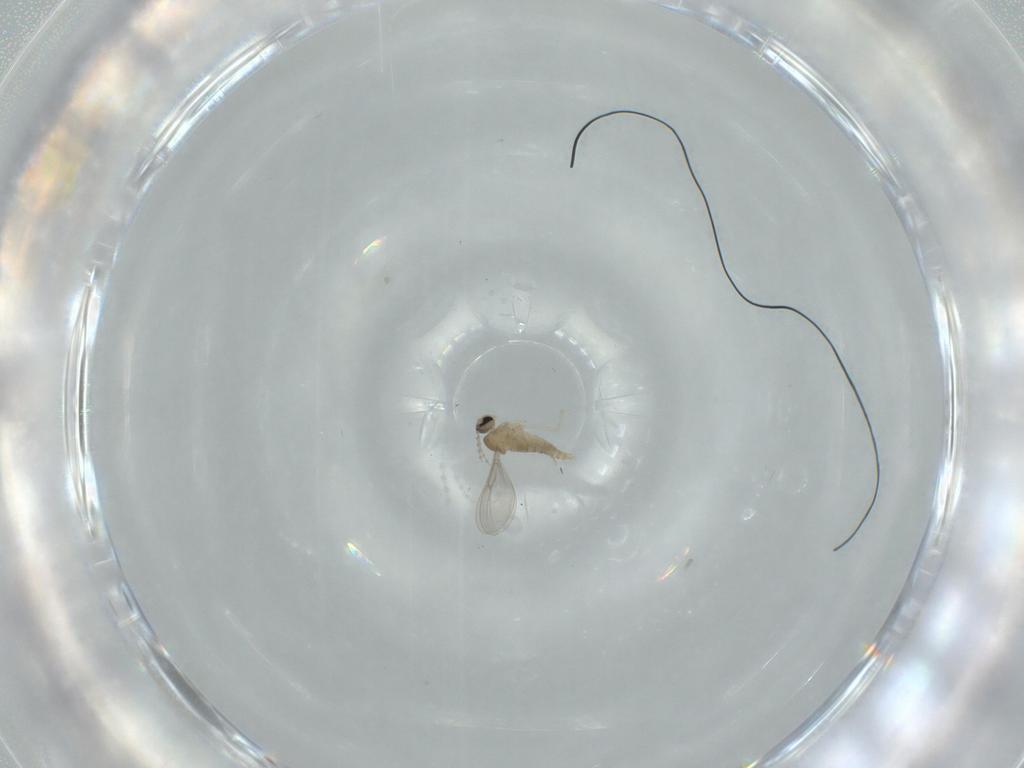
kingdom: Animalia
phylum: Arthropoda
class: Insecta
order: Diptera
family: Cecidomyiidae
